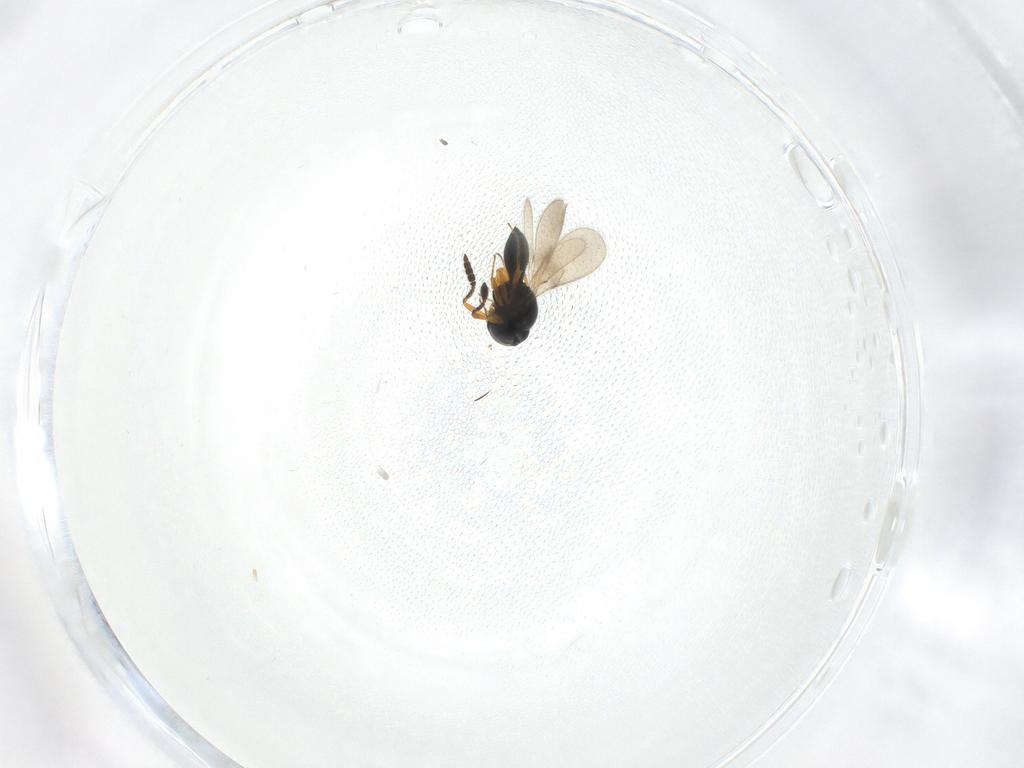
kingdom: Animalia
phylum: Arthropoda
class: Insecta
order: Hymenoptera
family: Scelionidae
